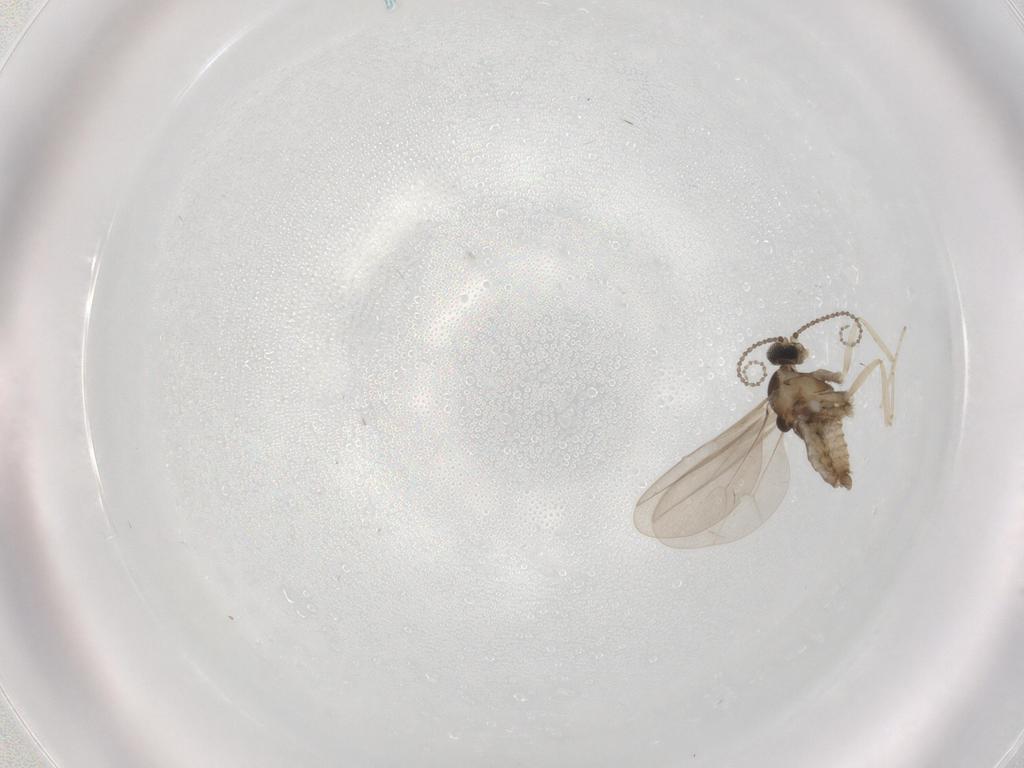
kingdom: Animalia
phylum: Arthropoda
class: Insecta
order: Diptera
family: Cecidomyiidae
